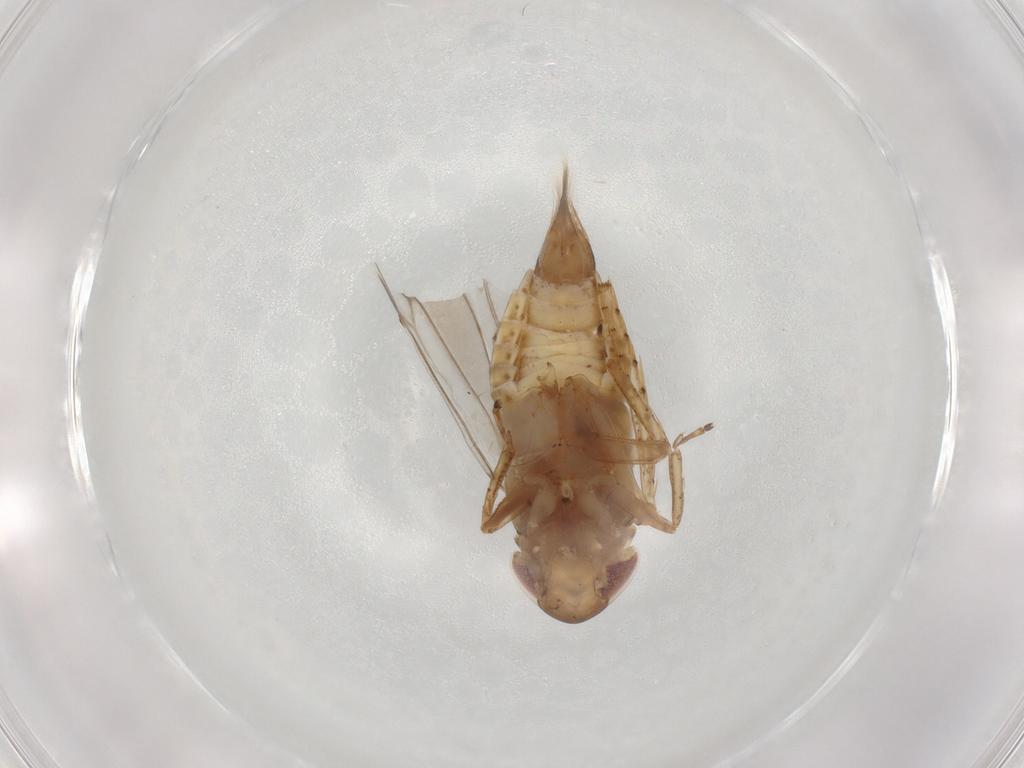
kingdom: Animalia
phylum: Arthropoda
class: Insecta
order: Hemiptera
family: Cicadellidae
